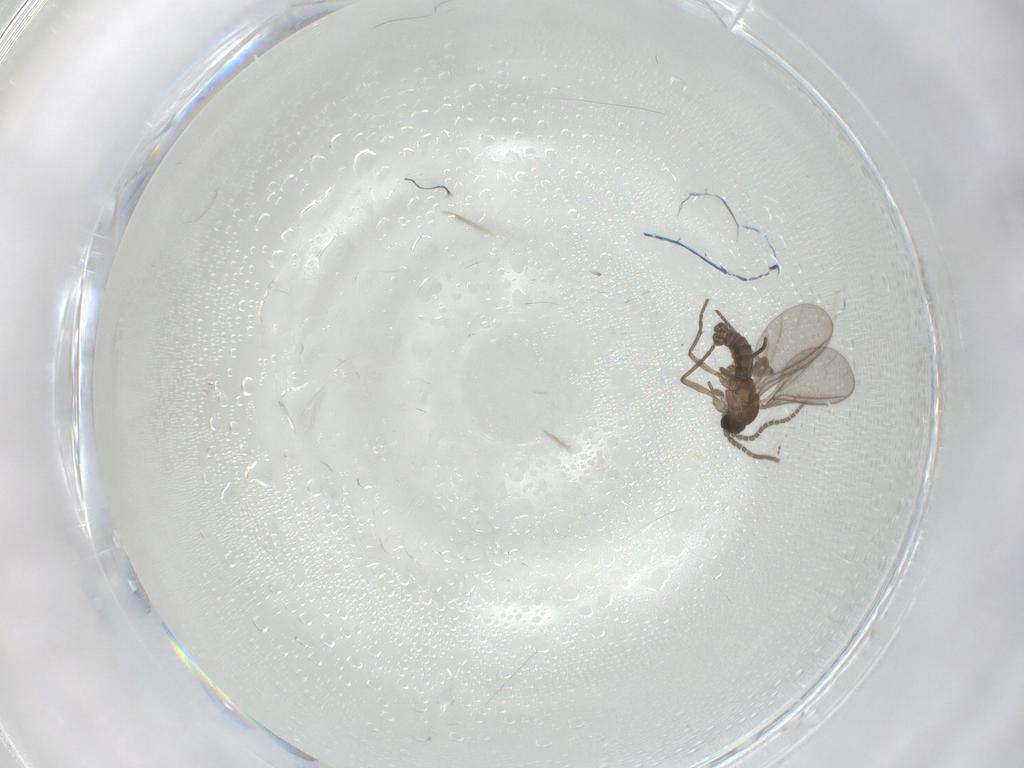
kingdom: Animalia
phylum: Arthropoda
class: Insecta
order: Diptera
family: Sciaridae
